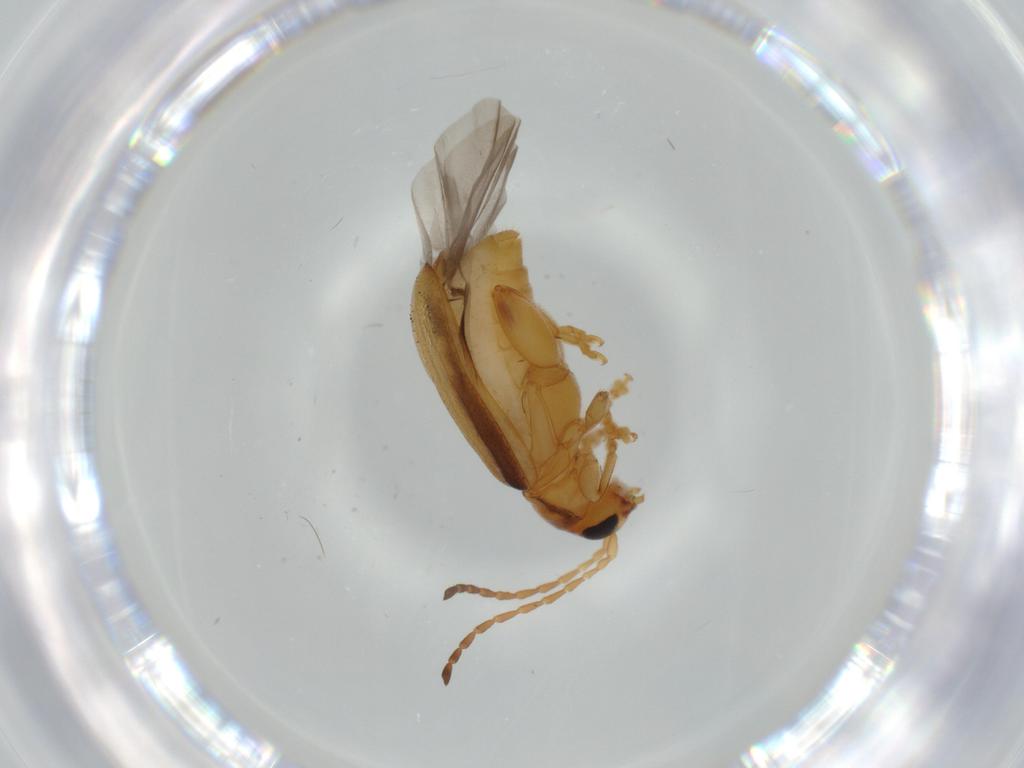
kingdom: Animalia
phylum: Arthropoda
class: Insecta
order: Coleoptera
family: Chrysomelidae
